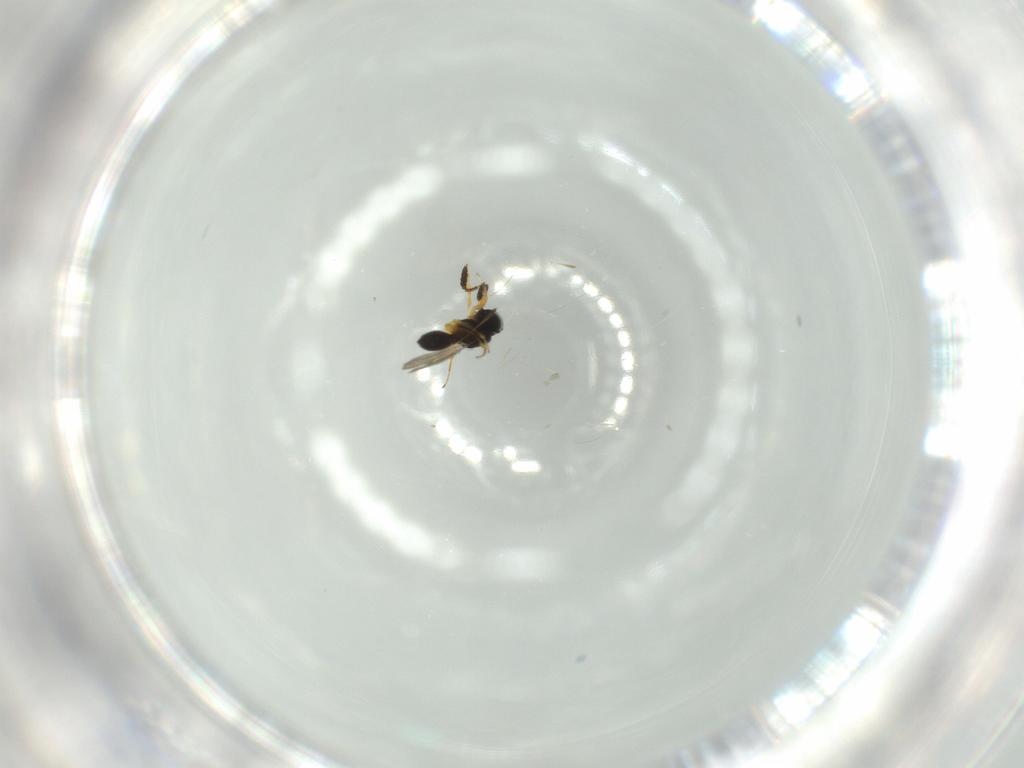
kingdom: Animalia
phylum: Arthropoda
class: Insecta
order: Hymenoptera
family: Scelionidae
